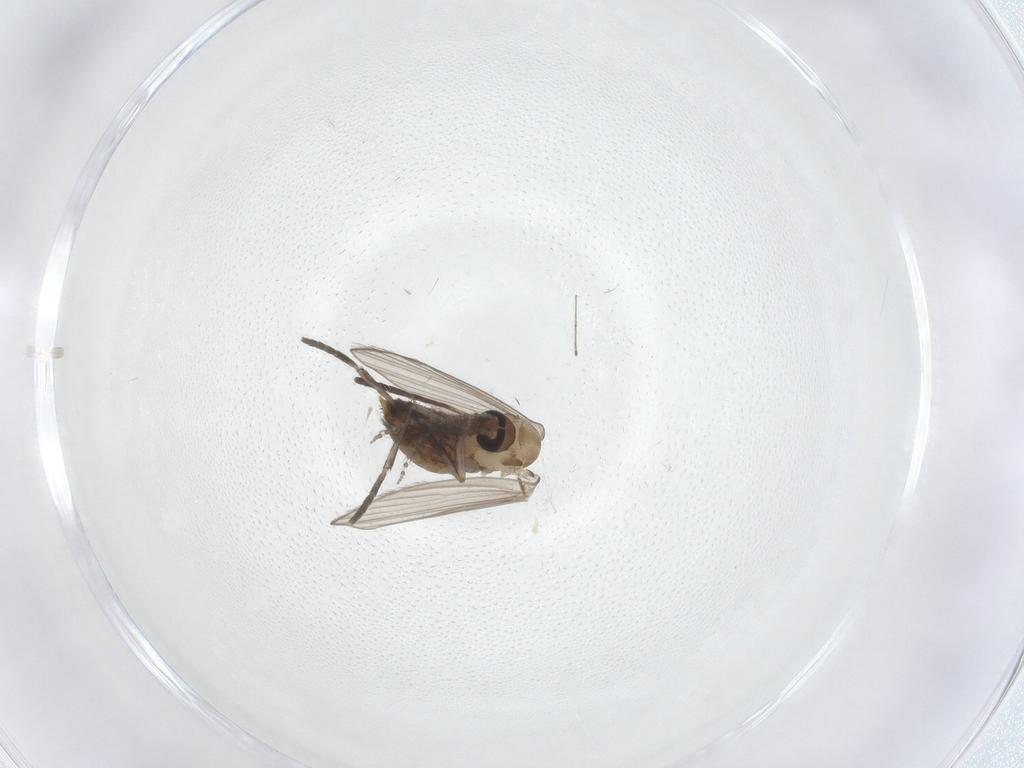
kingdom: Animalia
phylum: Arthropoda
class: Insecta
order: Diptera
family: Psychodidae
